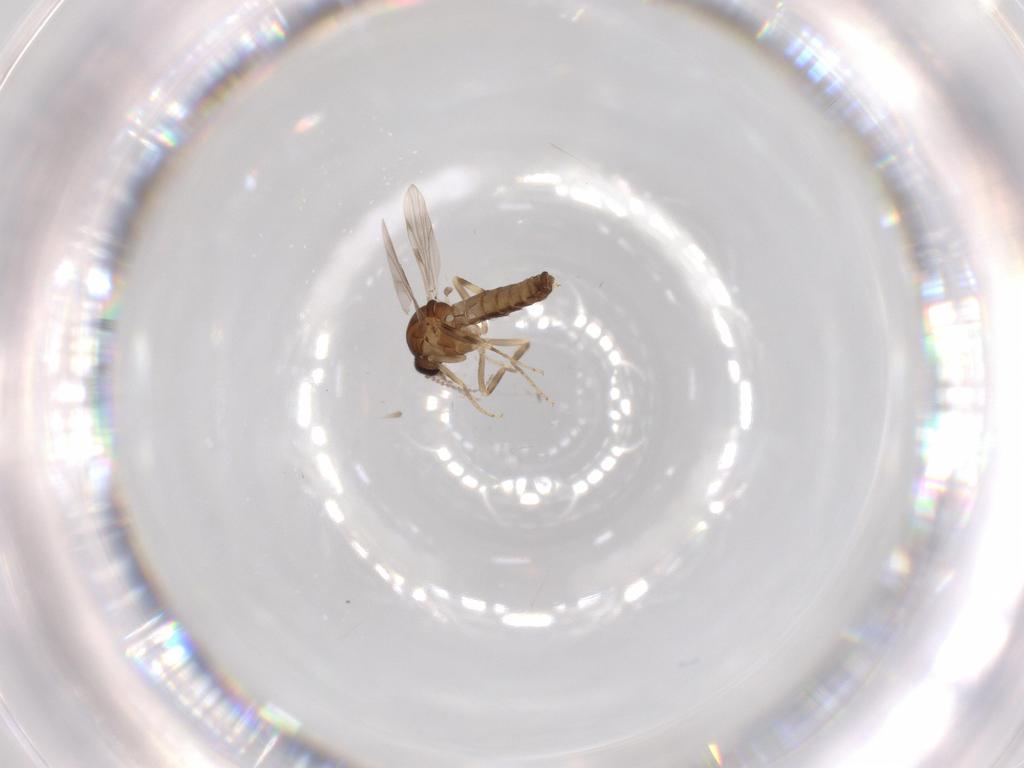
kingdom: Animalia
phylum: Arthropoda
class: Insecta
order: Diptera
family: Ceratopogonidae
